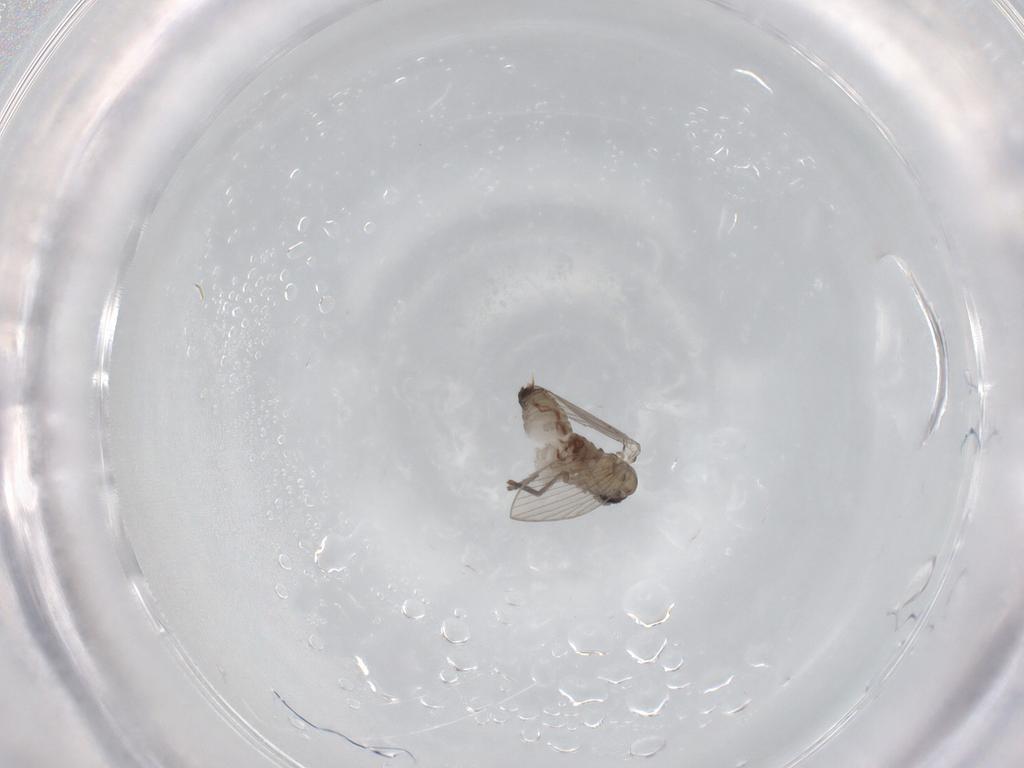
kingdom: Animalia
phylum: Arthropoda
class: Insecta
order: Diptera
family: Psychodidae
